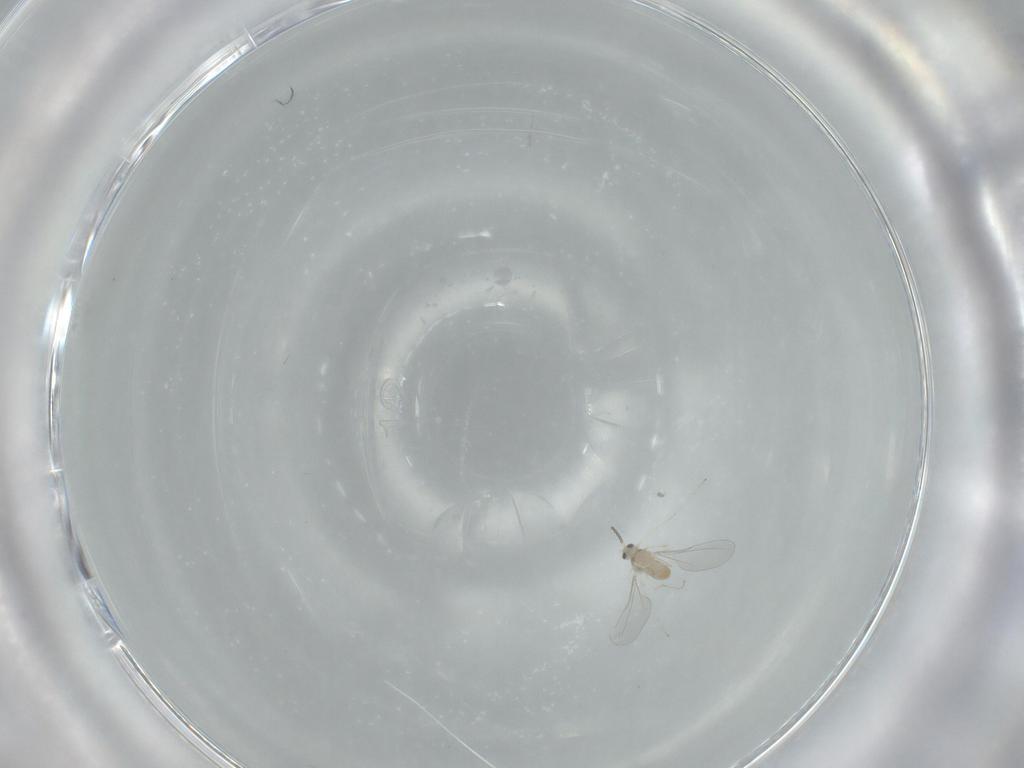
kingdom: Animalia
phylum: Arthropoda
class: Insecta
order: Diptera
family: Cecidomyiidae
